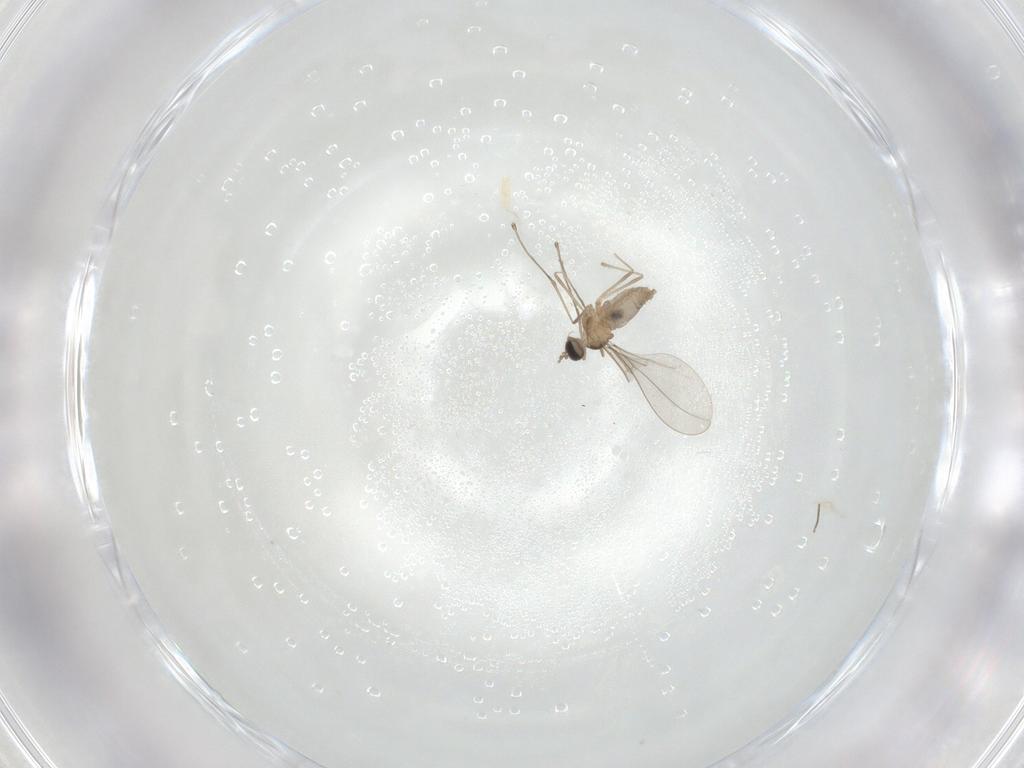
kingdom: Animalia
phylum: Arthropoda
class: Insecta
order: Diptera
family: Cecidomyiidae
